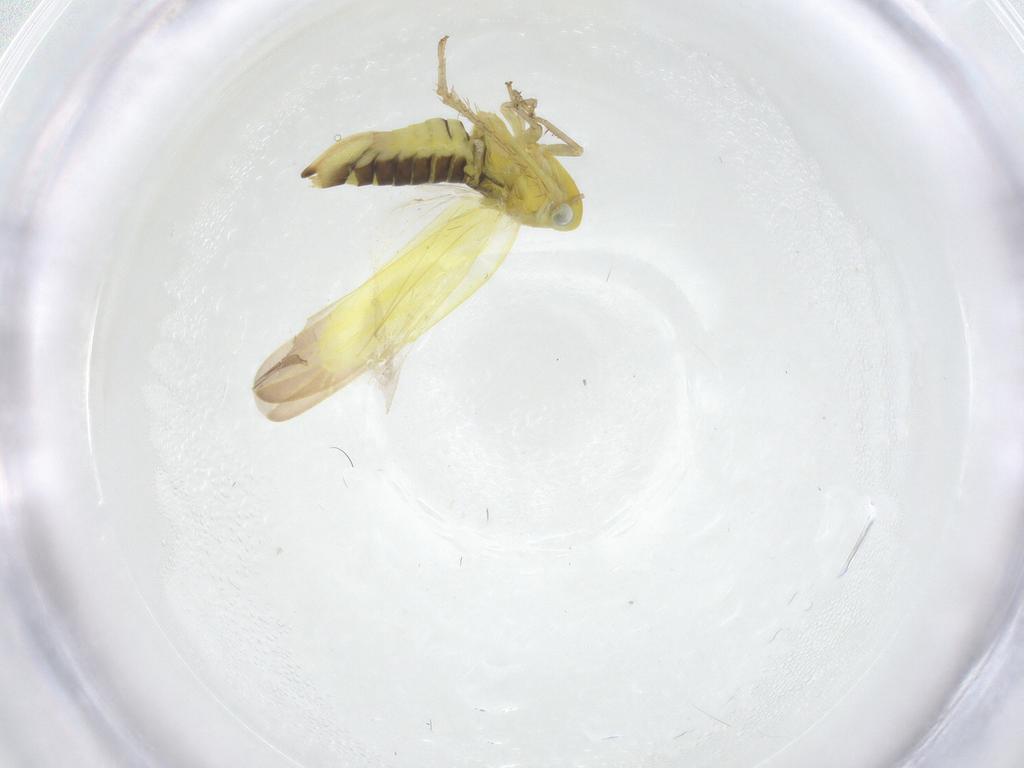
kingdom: Animalia
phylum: Arthropoda
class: Insecta
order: Hemiptera
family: Cicadellidae
